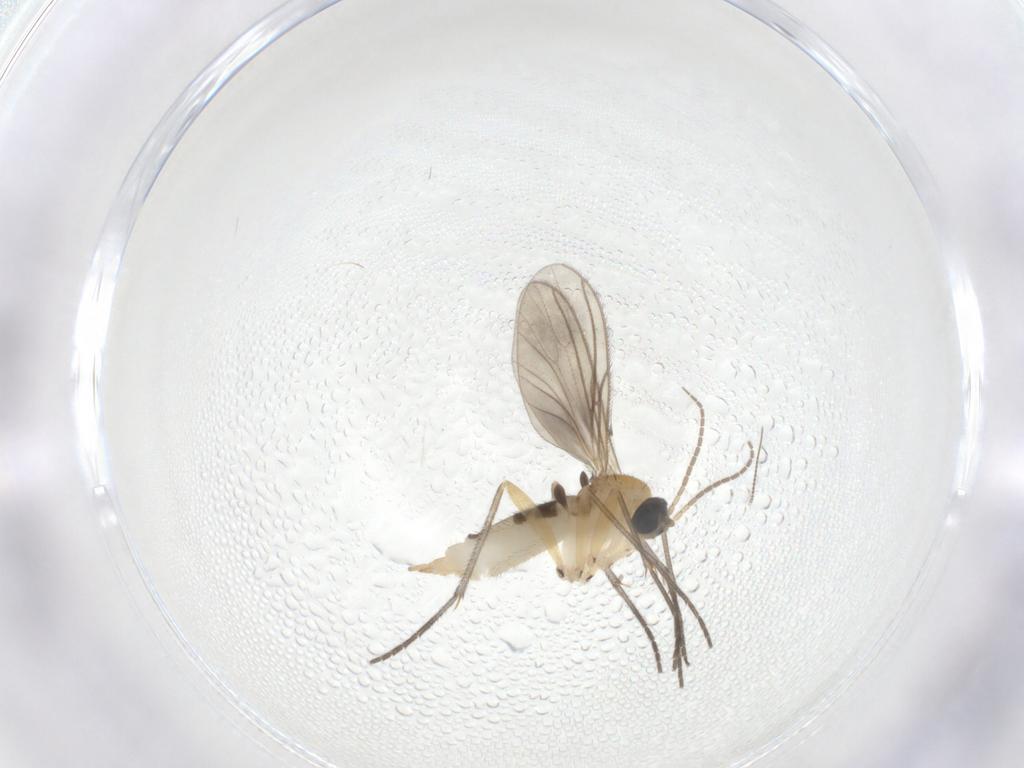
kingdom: Animalia
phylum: Arthropoda
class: Insecta
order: Diptera
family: Sciaridae
